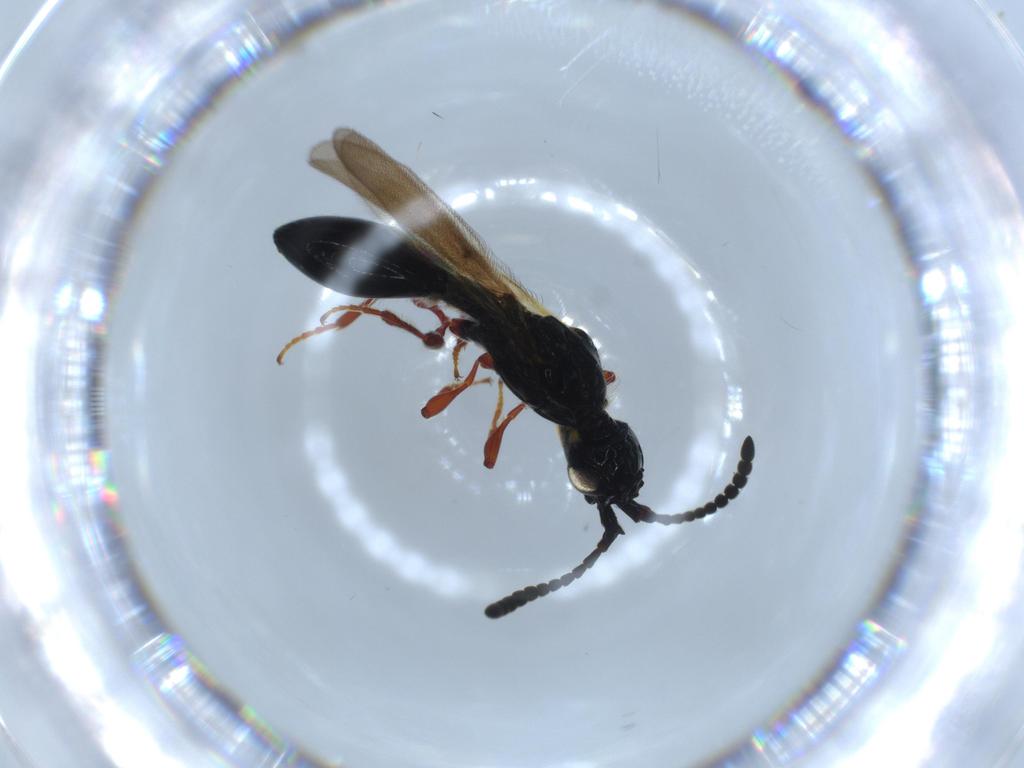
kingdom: Animalia
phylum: Arthropoda
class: Insecta
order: Hymenoptera
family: Diapriidae
